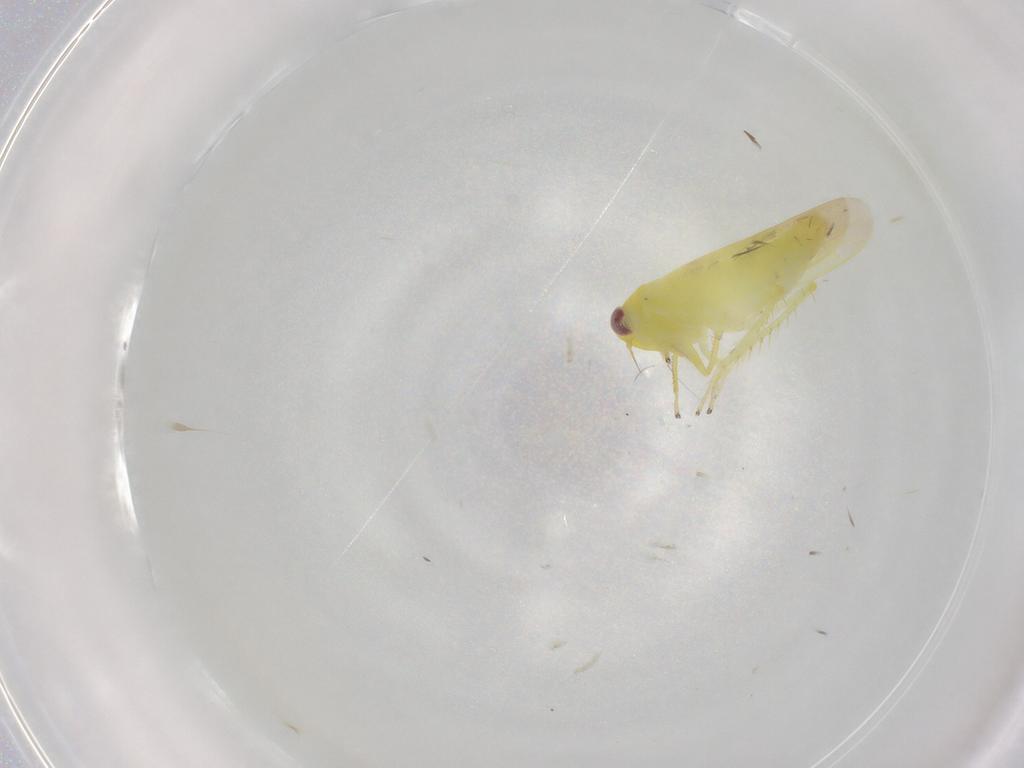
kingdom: Animalia
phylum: Arthropoda
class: Insecta
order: Hemiptera
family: Cicadellidae
